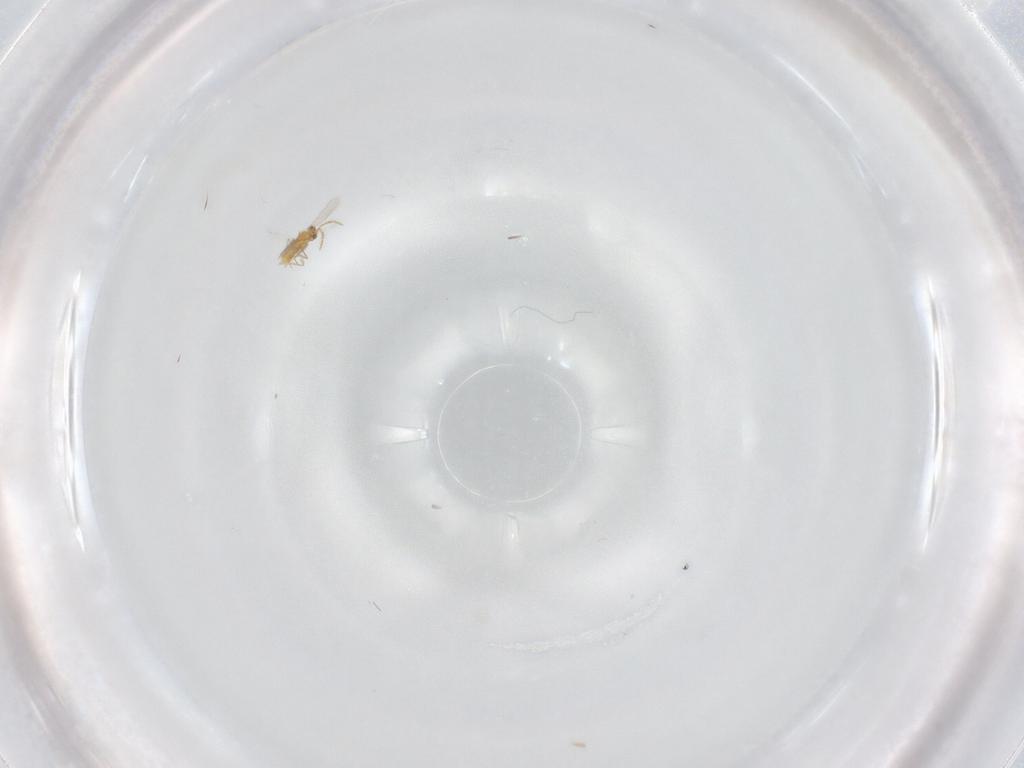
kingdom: Animalia
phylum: Arthropoda
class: Insecta
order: Hymenoptera
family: Aphelinidae
